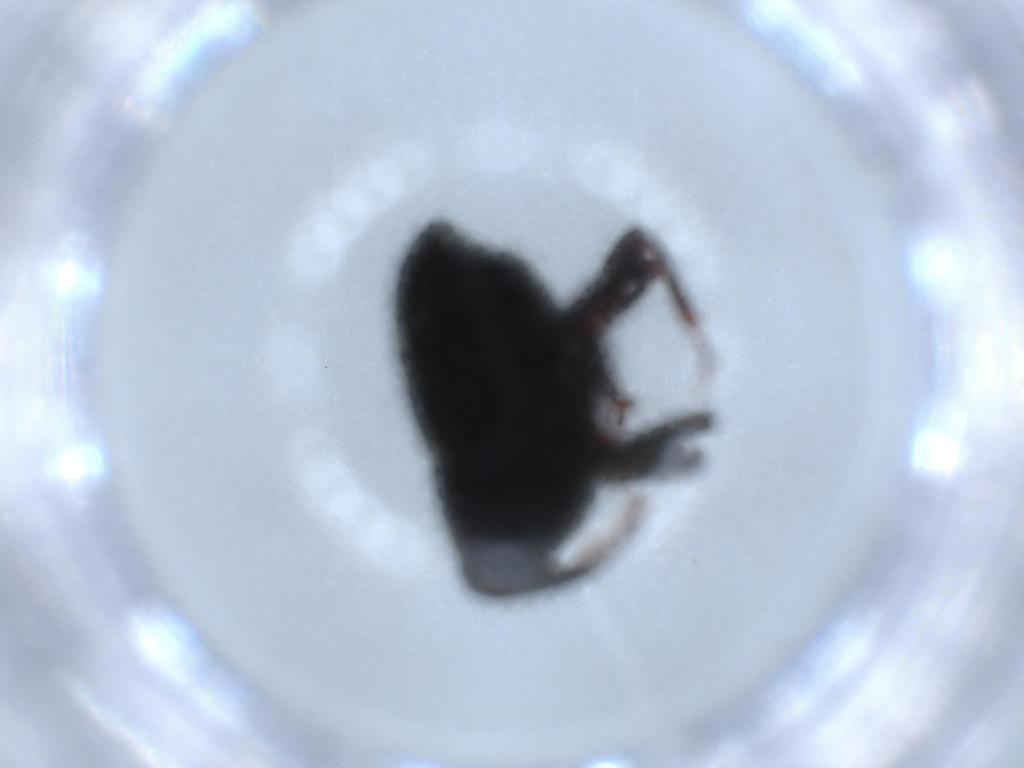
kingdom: Animalia
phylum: Arthropoda
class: Insecta
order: Coleoptera
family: Curculionidae
